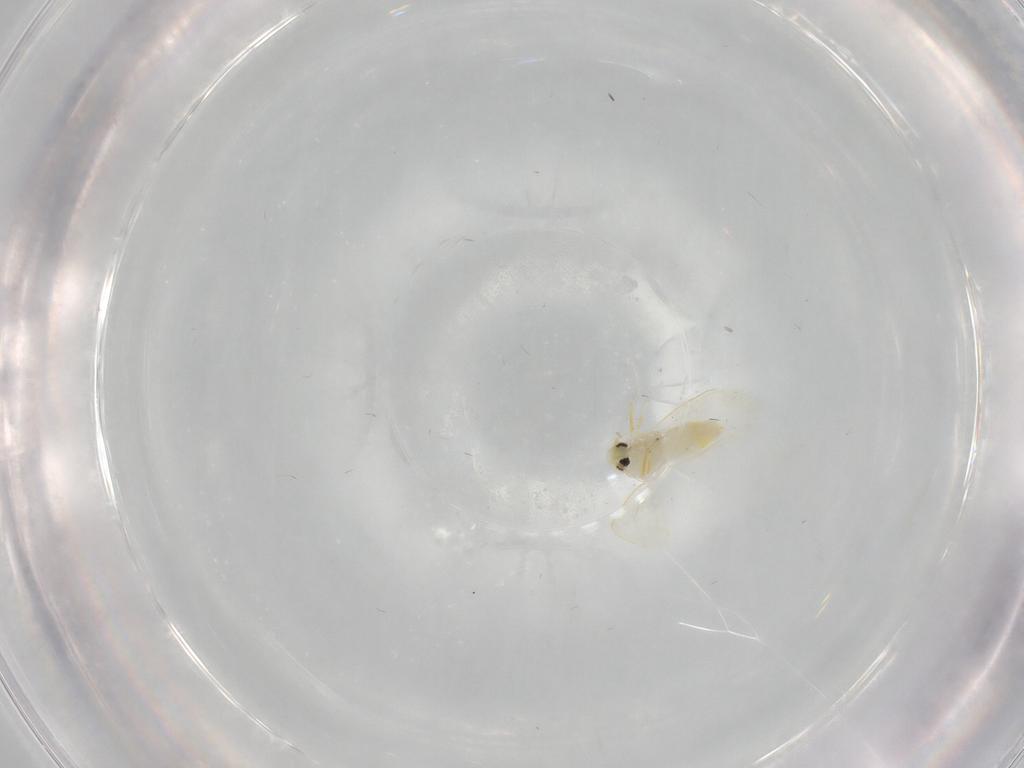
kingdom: Animalia
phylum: Arthropoda
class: Insecta
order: Hemiptera
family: Aleyrodidae
